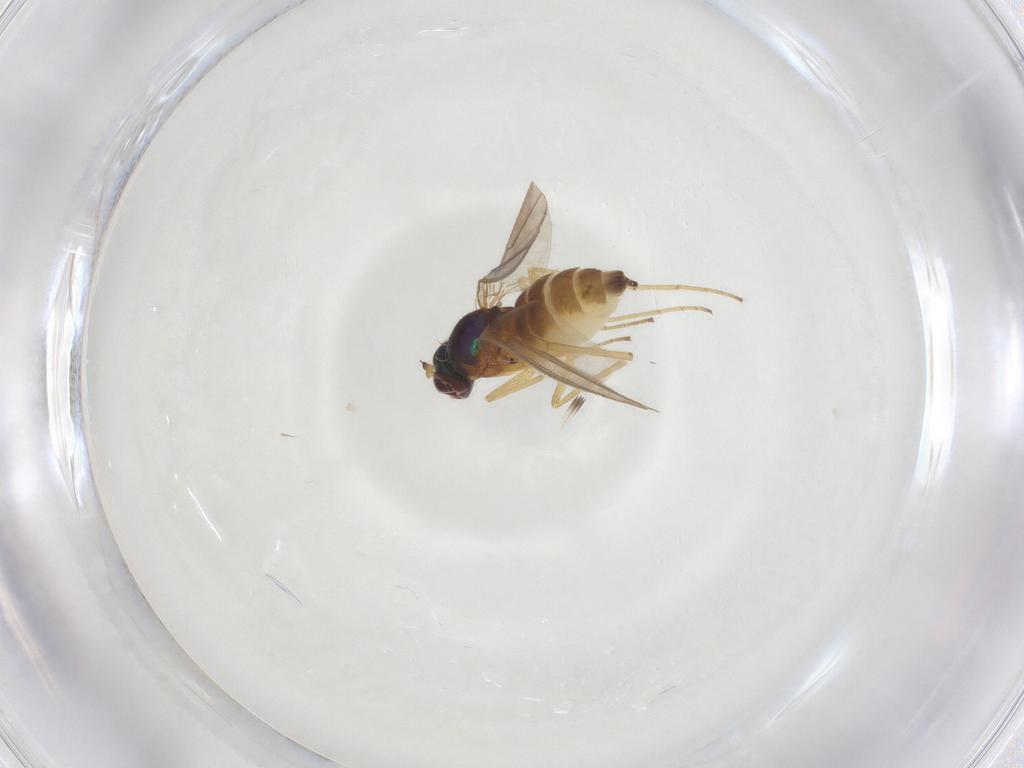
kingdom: Animalia
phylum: Arthropoda
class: Insecta
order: Diptera
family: Dolichopodidae
